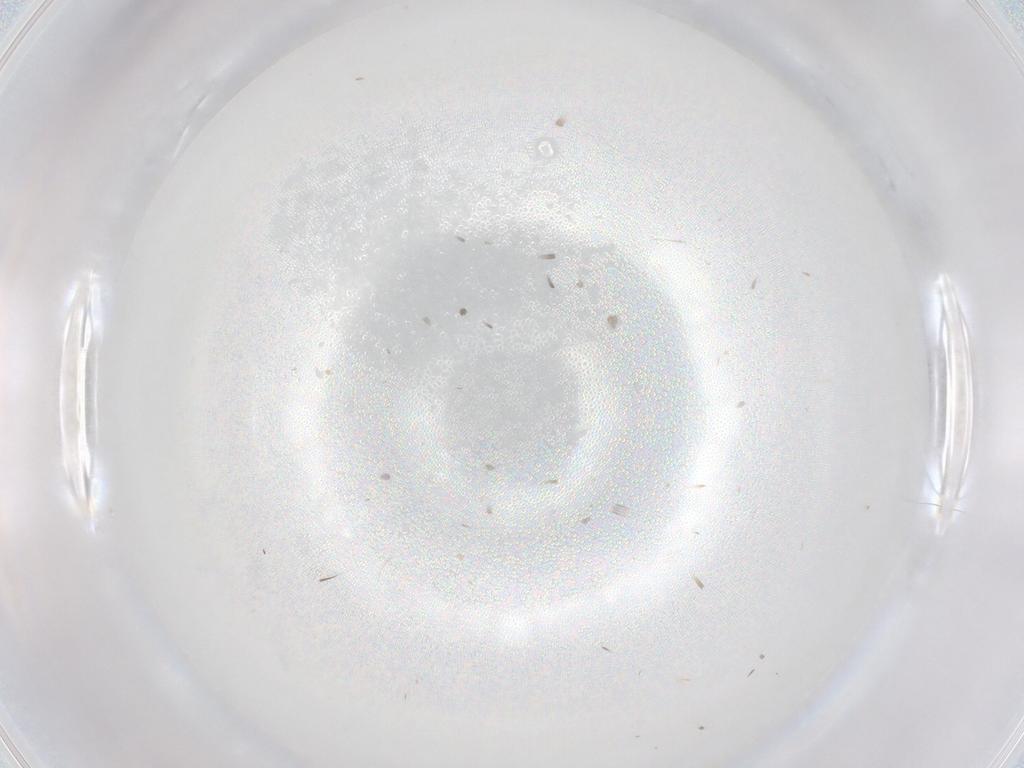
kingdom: Animalia
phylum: Arthropoda
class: Insecta
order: Diptera
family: Chironomidae
